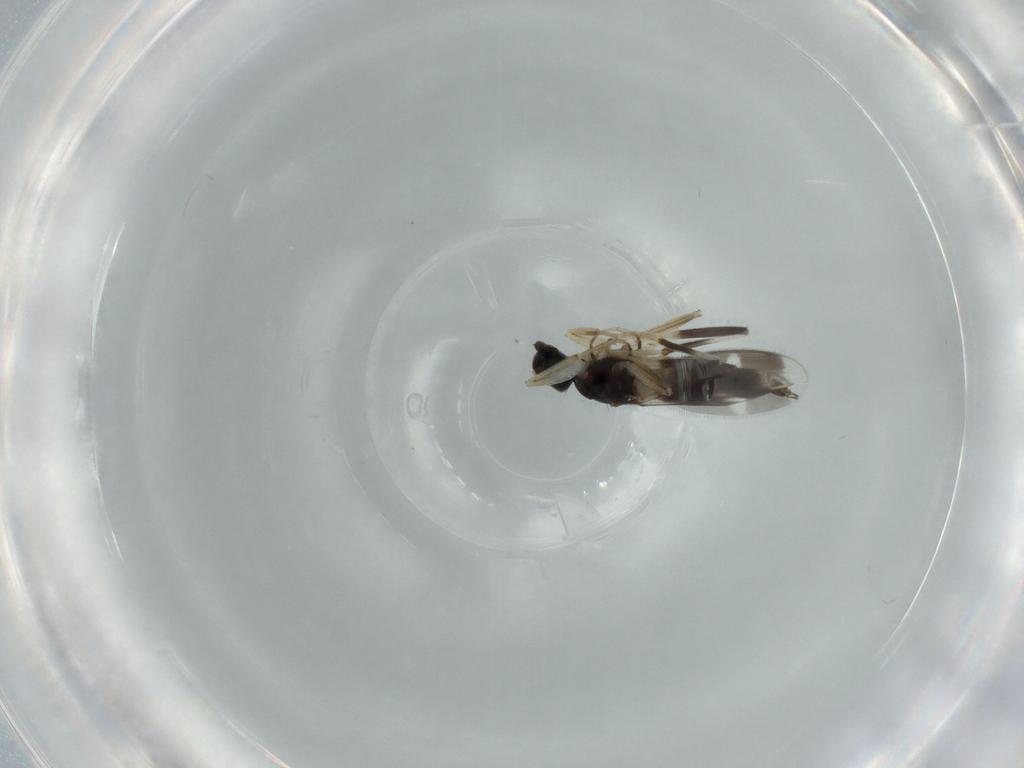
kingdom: Animalia
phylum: Arthropoda
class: Insecta
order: Diptera
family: Hybotidae
